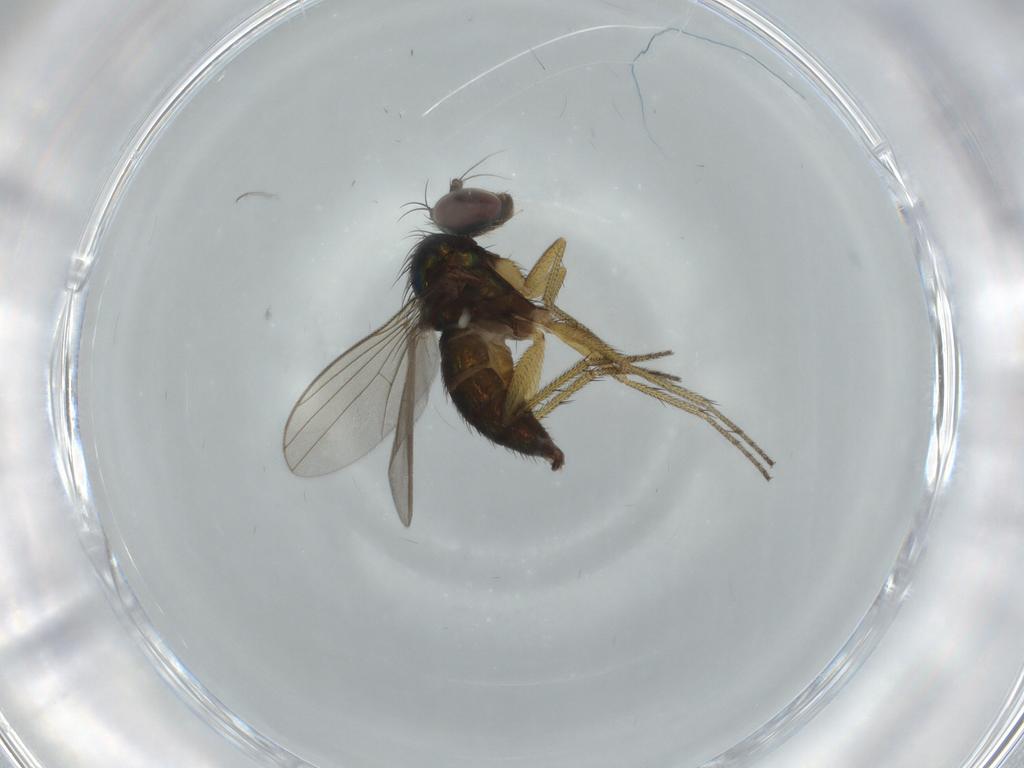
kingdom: Animalia
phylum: Arthropoda
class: Insecta
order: Diptera
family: Dolichopodidae
